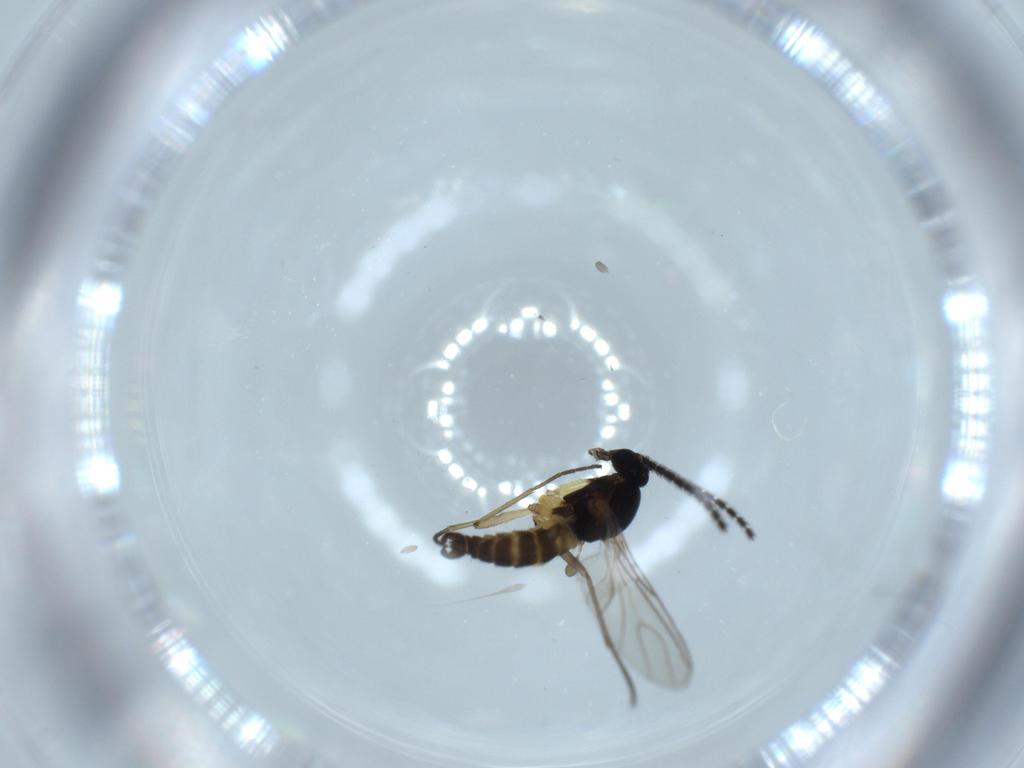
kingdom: Animalia
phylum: Arthropoda
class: Insecta
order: Diptera
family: Sciaridae
